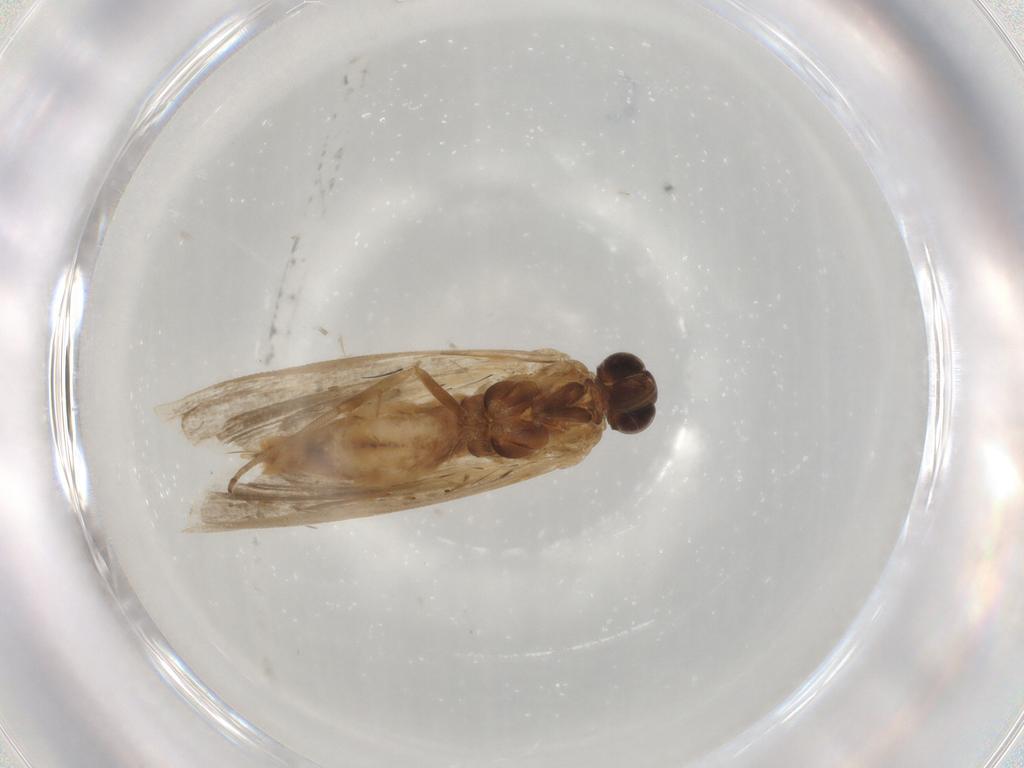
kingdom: Animalia
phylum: Arthropoda
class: Insecta
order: Lepidoptera
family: Noctuidae
